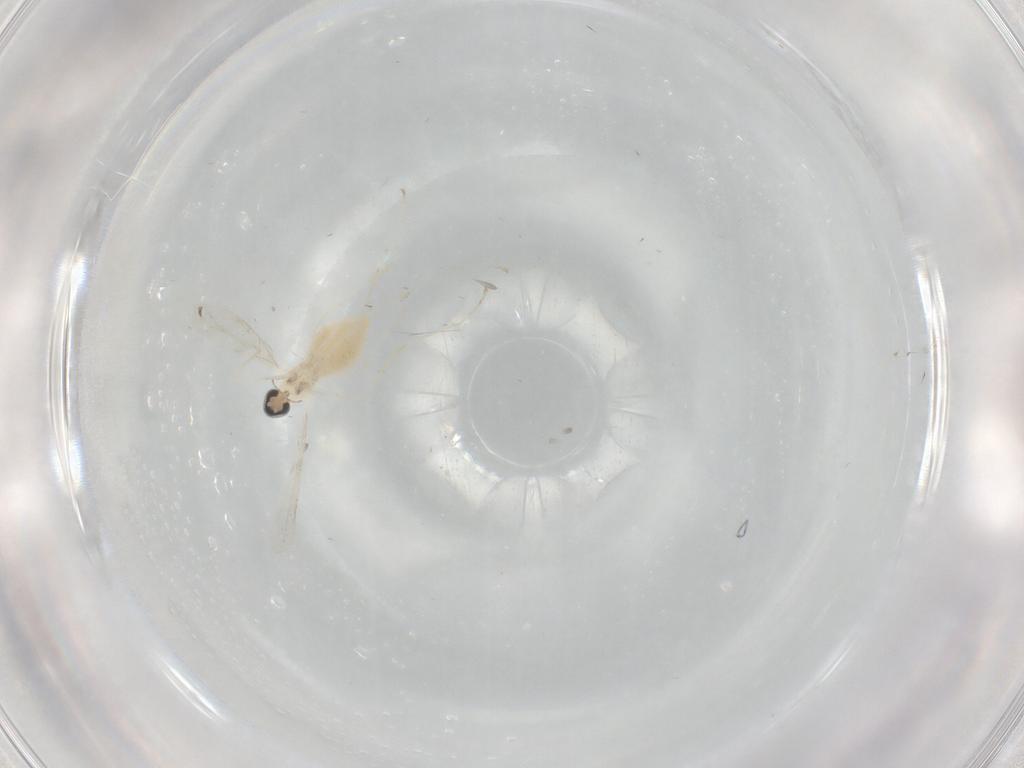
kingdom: Animalia
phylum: Arthropoda
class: Insecta
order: Diptera
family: Cecidomyiidae
